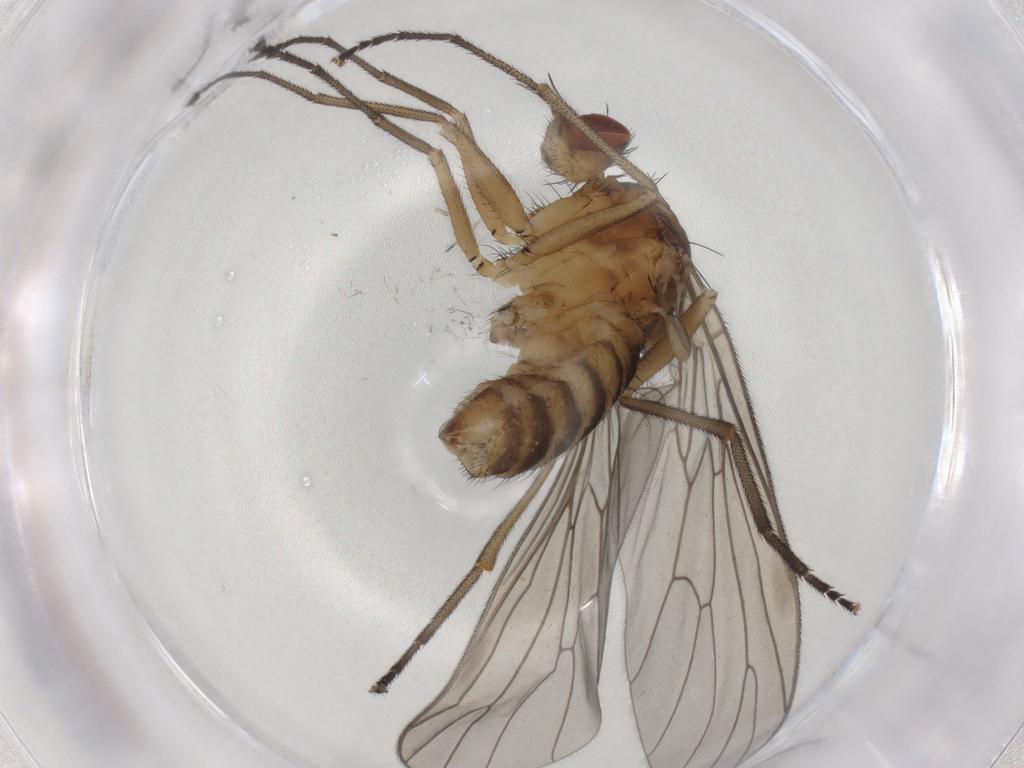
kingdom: Animalia
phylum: Arthropoda
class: Insecta
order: Diptera
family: Brachystomatidae
